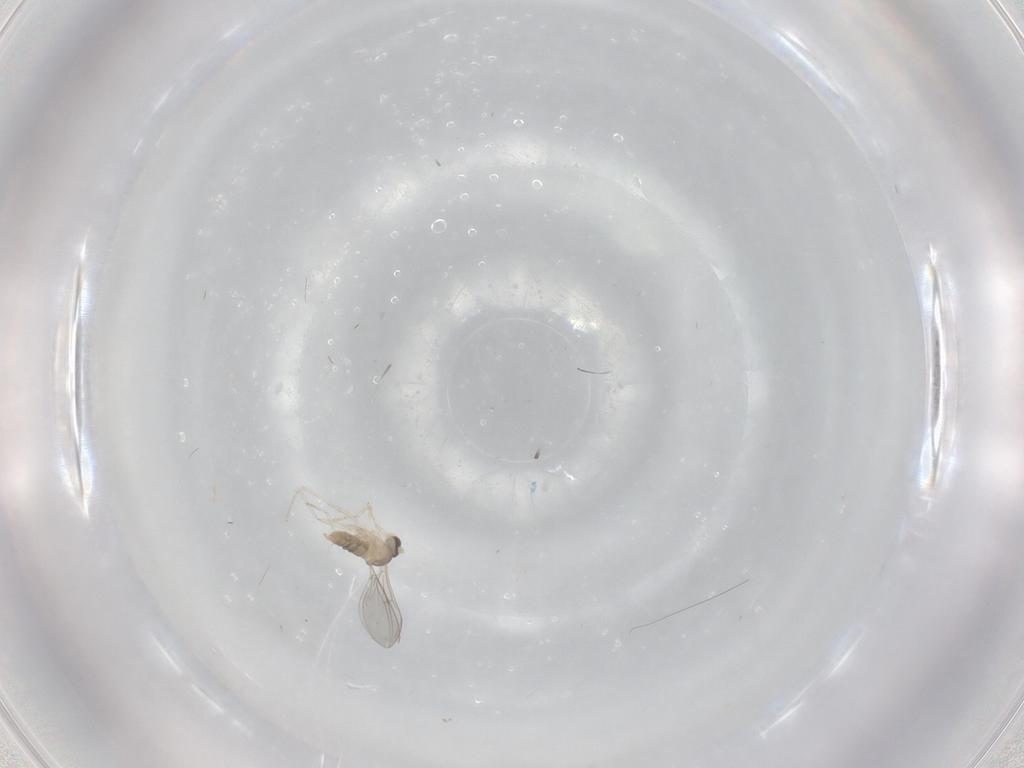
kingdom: Animalia
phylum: Arthropoda
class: Insecta
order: Diptera
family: Cecidomyiidae
